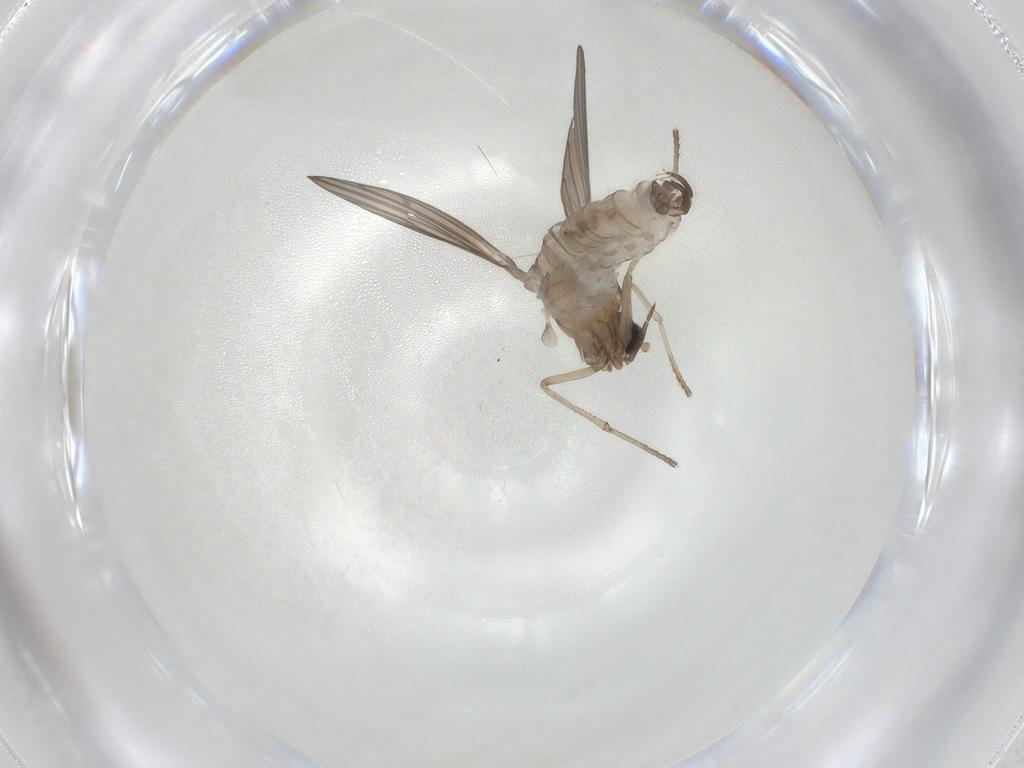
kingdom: Animalia
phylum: Arthropoda
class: Insecta
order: Diptera
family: Psychodidae
